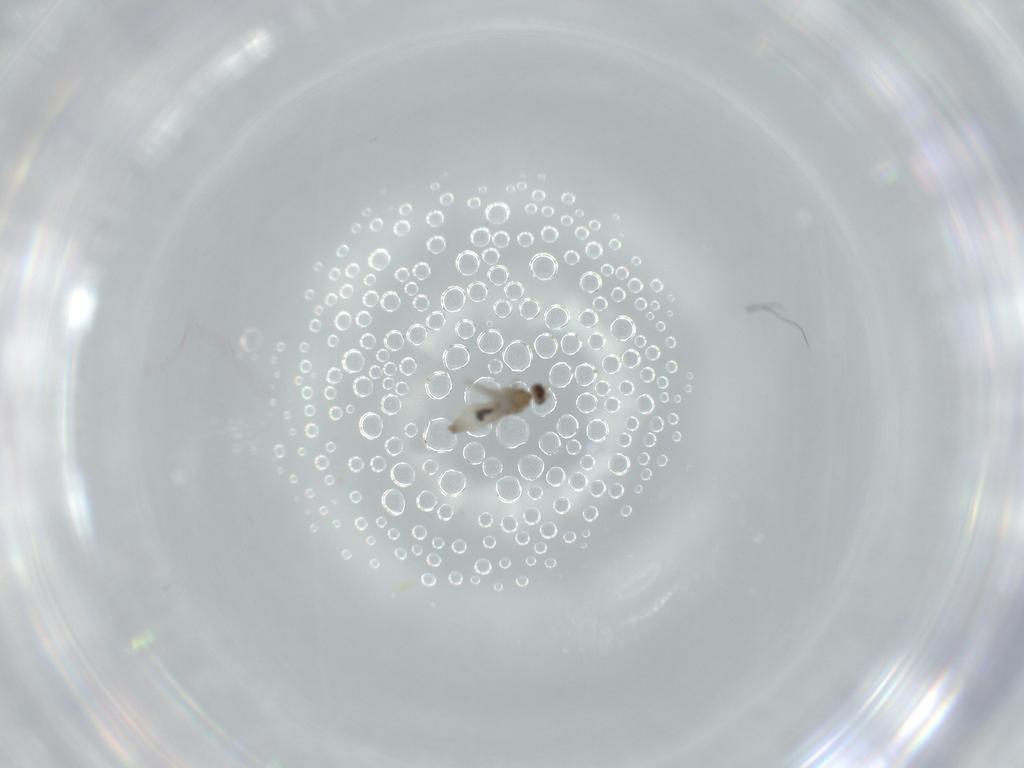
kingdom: Animalia
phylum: Arthropoda
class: Insecta
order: Diptera
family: Cecidomyiidae
